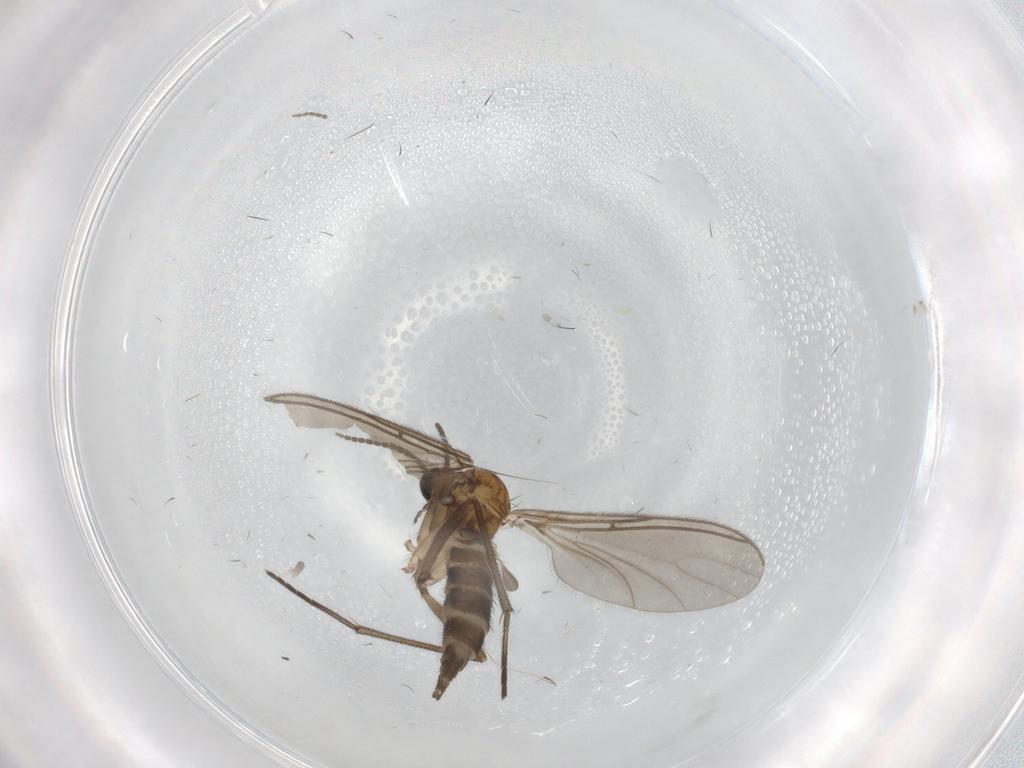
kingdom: Animalia
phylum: Arthropoda
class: Insecta
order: Diptera
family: Sciaridae
